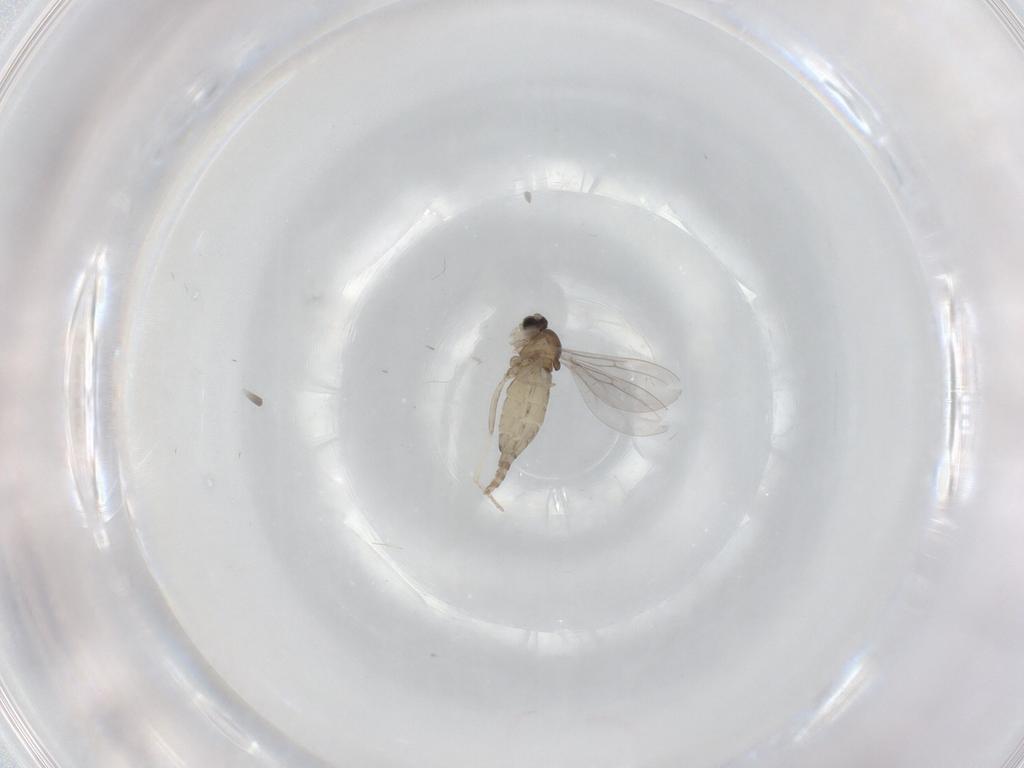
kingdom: Animalia
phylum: Arthropoda
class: Insecta
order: Diptera
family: Cecidomyiidae
